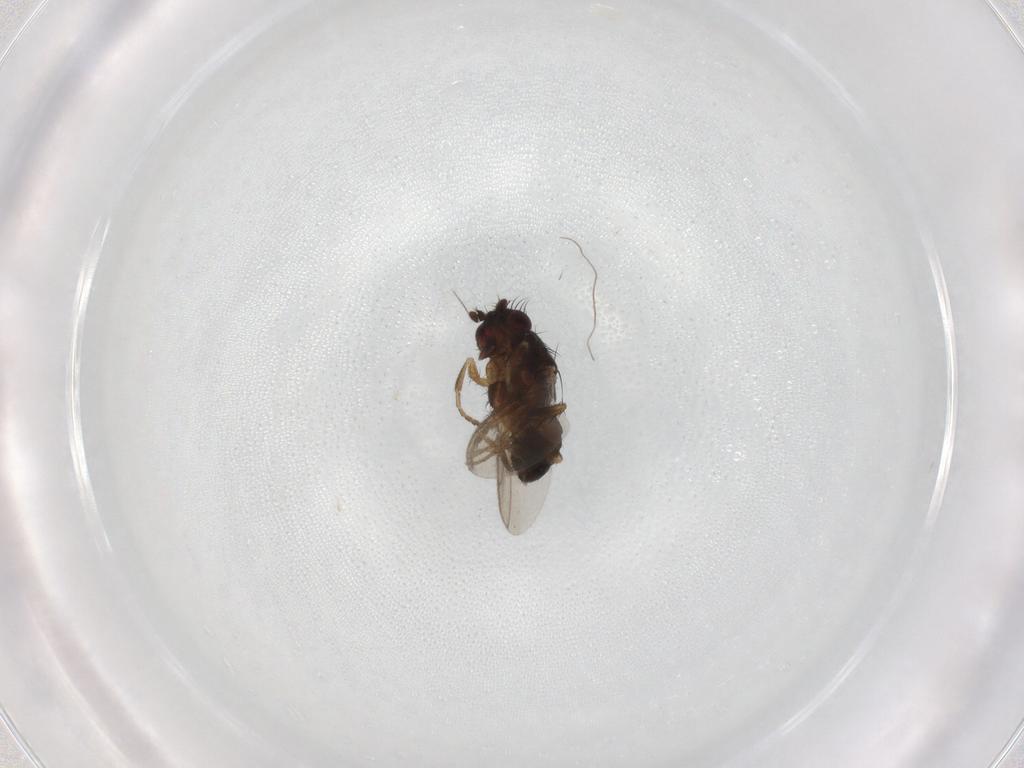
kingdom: Animalia
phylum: Arthropoda
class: Insecta
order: Diptera
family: Sphaeroceridae
